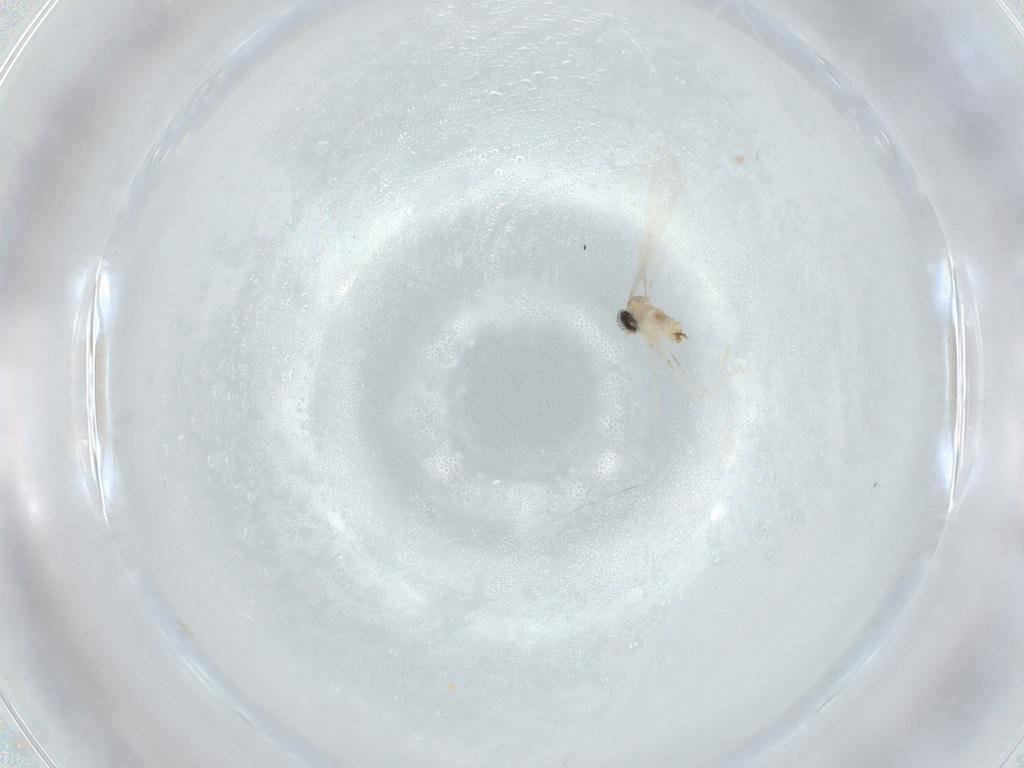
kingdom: Animalia
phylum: Arthropoda
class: Insecta
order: Diptera
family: Cecidomyiidae
